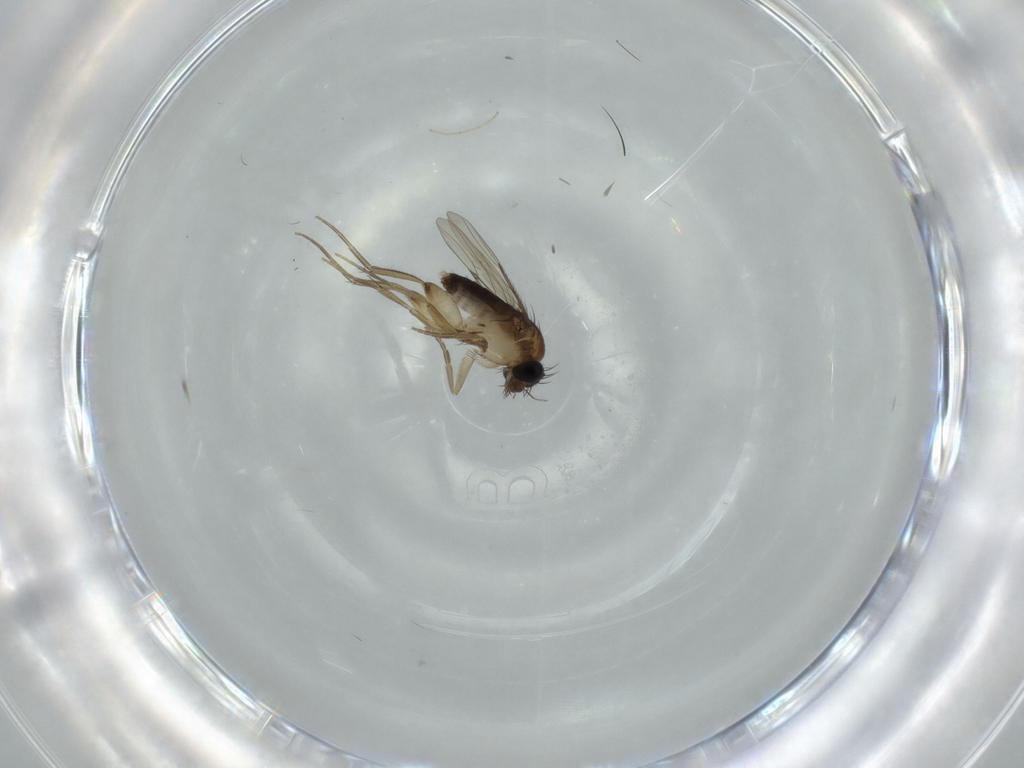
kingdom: Animalia
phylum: Arthropoda
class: Insecta
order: Diptera
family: Phoridae
